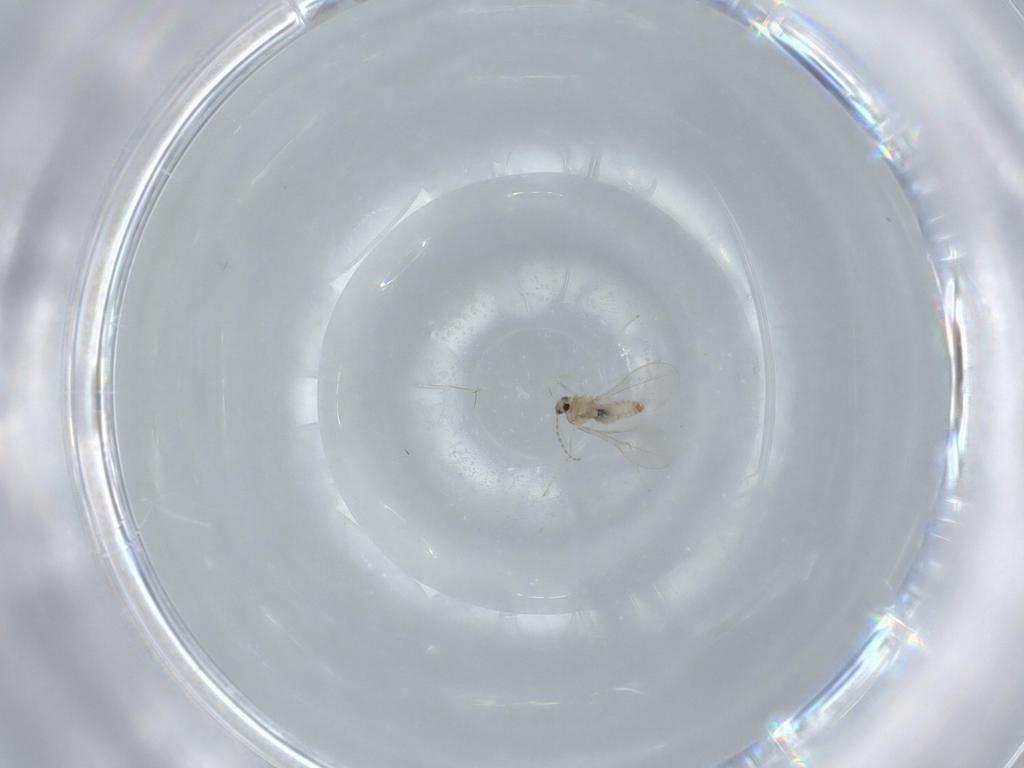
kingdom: Animalia
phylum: Arthropoda
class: Insecta
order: Diptera
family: Cecidomyiidae
